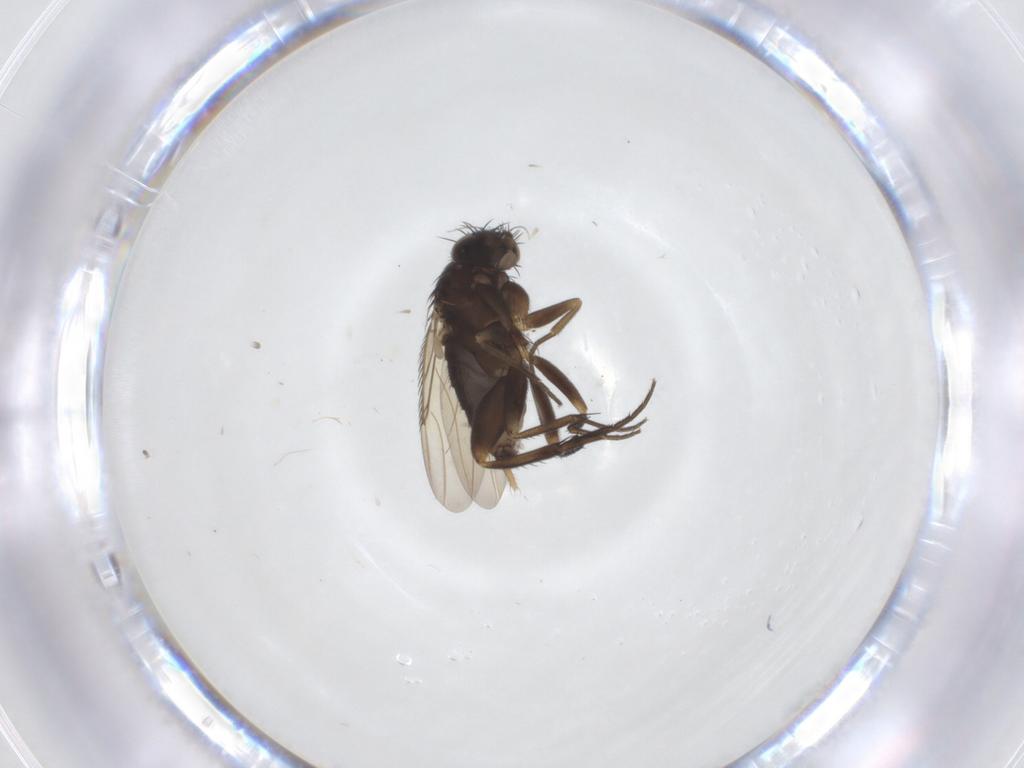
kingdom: Animalia
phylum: Arthropoda
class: Insecta
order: Diptera
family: Phoridae
